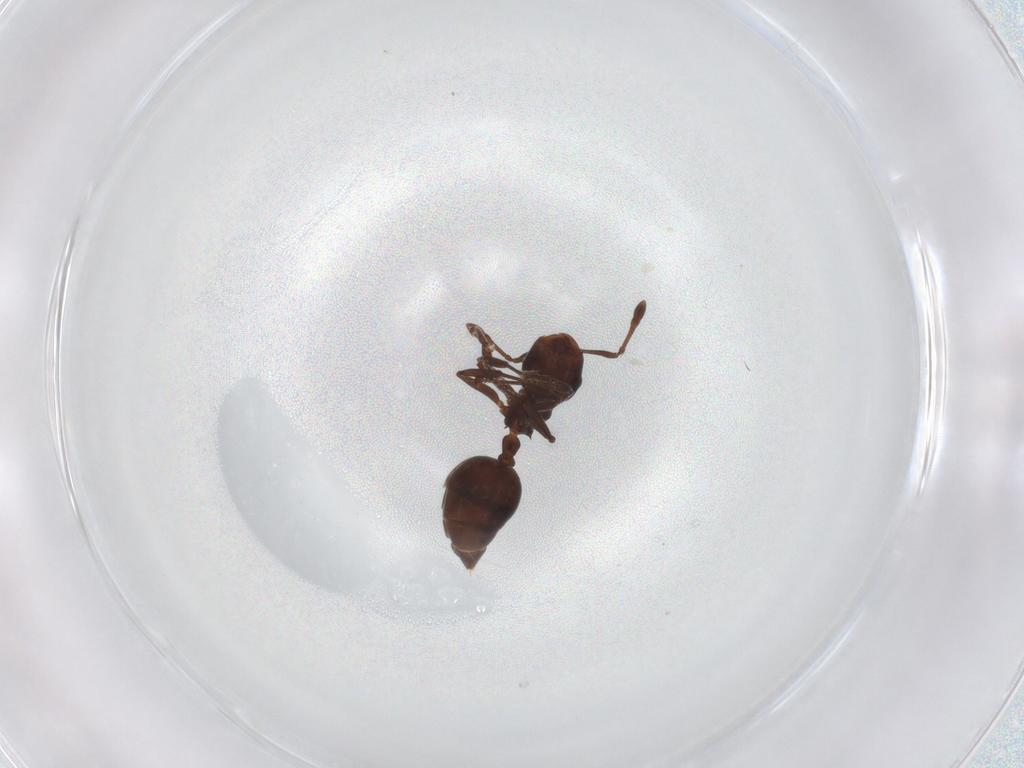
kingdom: Animalia
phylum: Arthropoda
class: Insecta
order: Hymenoptera
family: Formicidae
